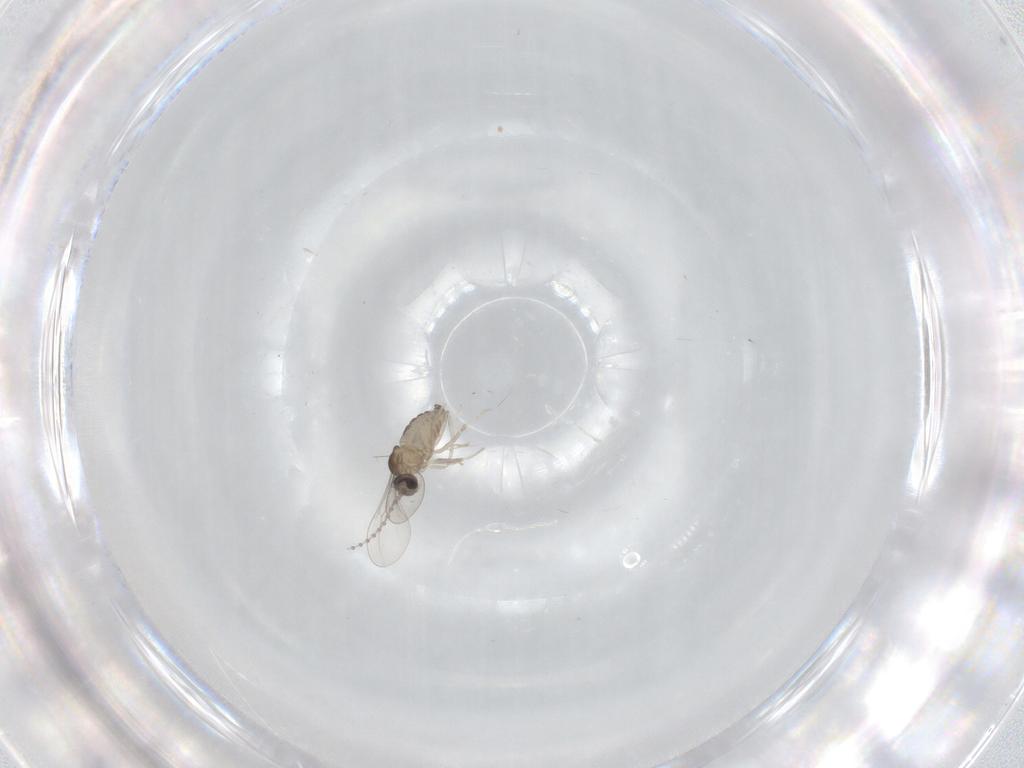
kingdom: Animalia
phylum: Arthropoda
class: Insecta
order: Diptera
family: Cecidomyiidae
